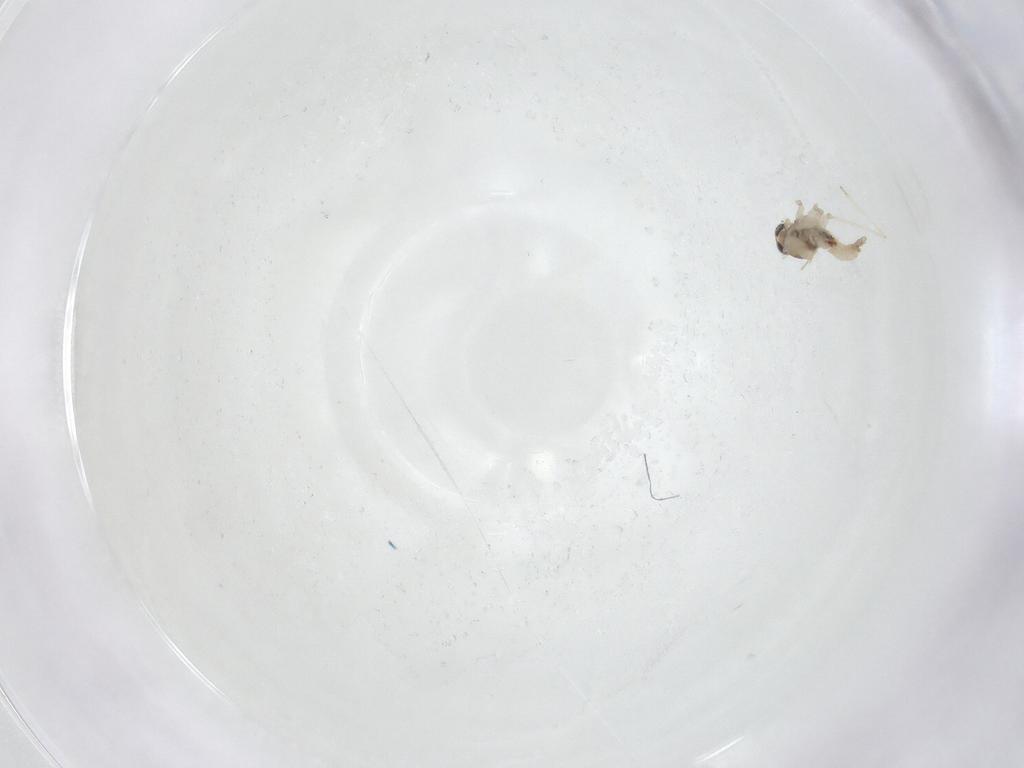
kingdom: Animalia
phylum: Arthropoda
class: Insecta
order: Diptera
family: Cecidomyiidae
